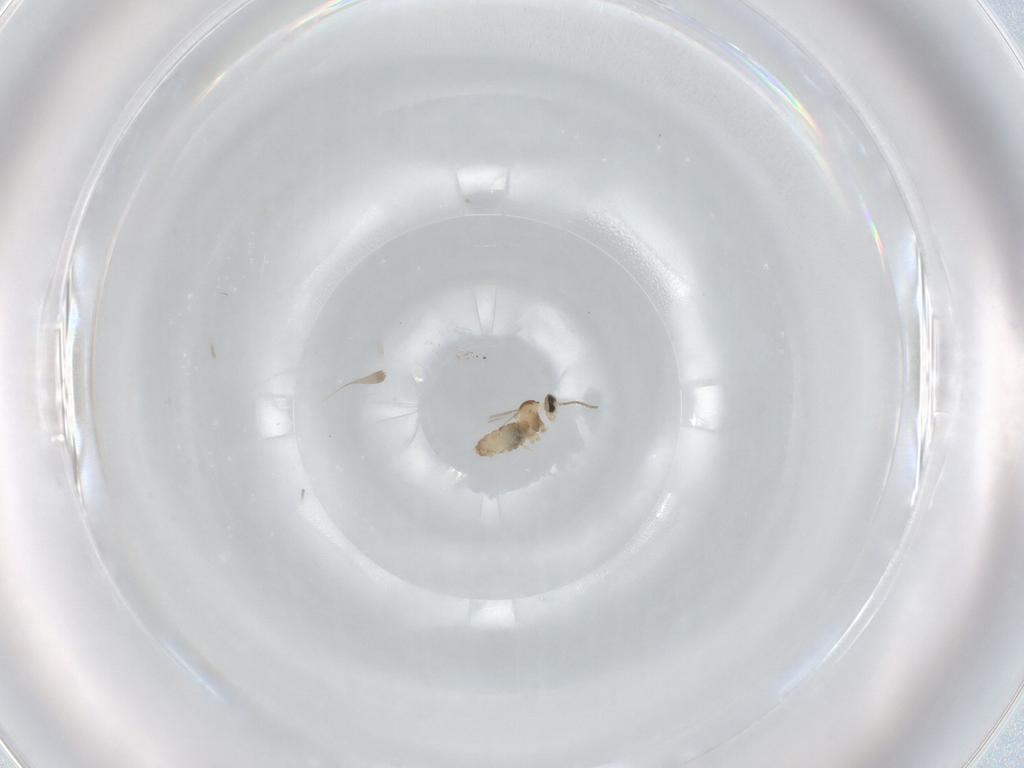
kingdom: Animalia
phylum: Arthropoda
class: Insecta
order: Diptera
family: Cecidomyiidae
